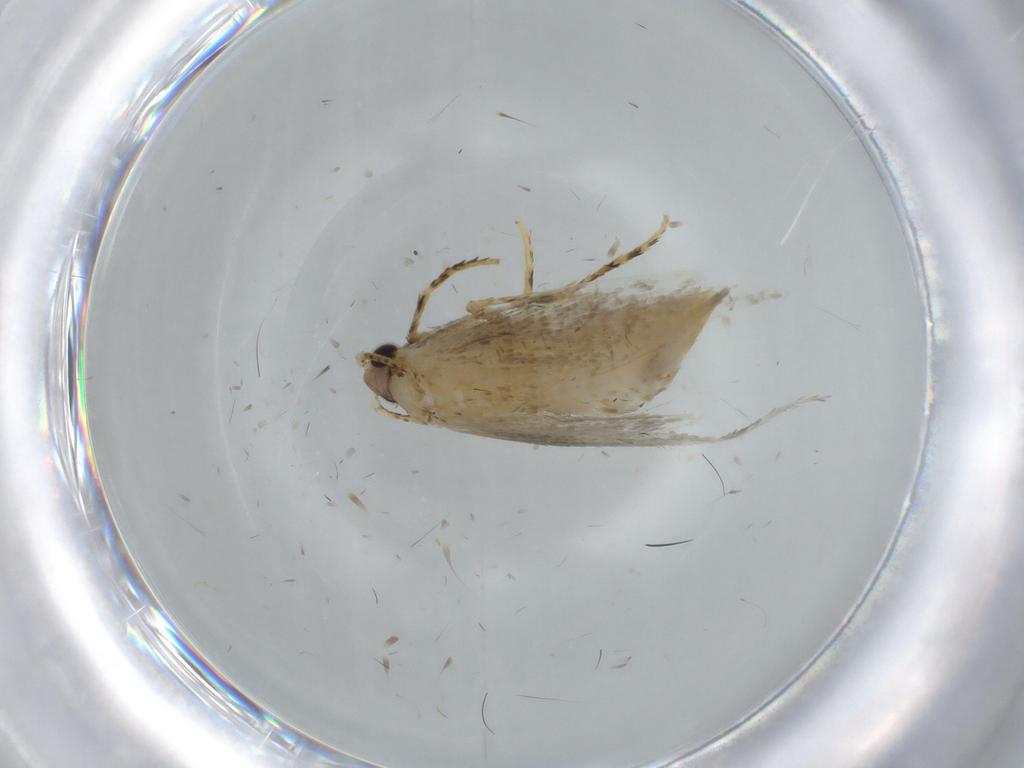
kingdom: Animalia
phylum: Arthropoda
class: Insecta
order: Lepidoptera
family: Tineidae
